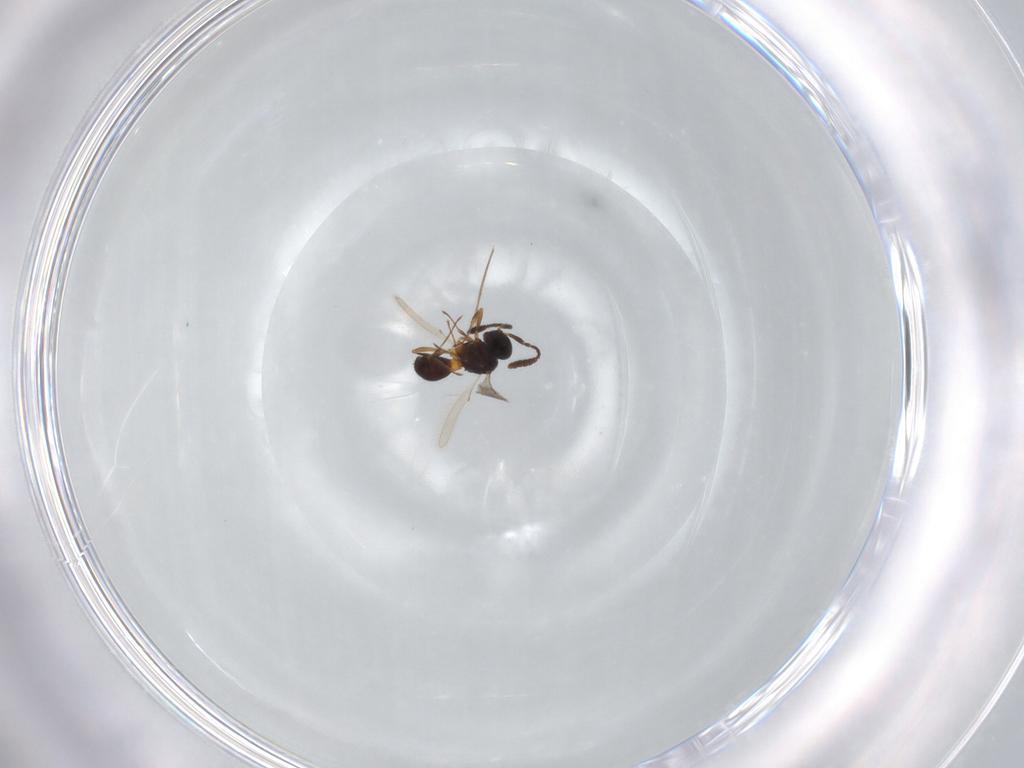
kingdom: Animalia
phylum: Arthropoda
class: Insecta
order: Hymenoptera
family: Scelionidae
